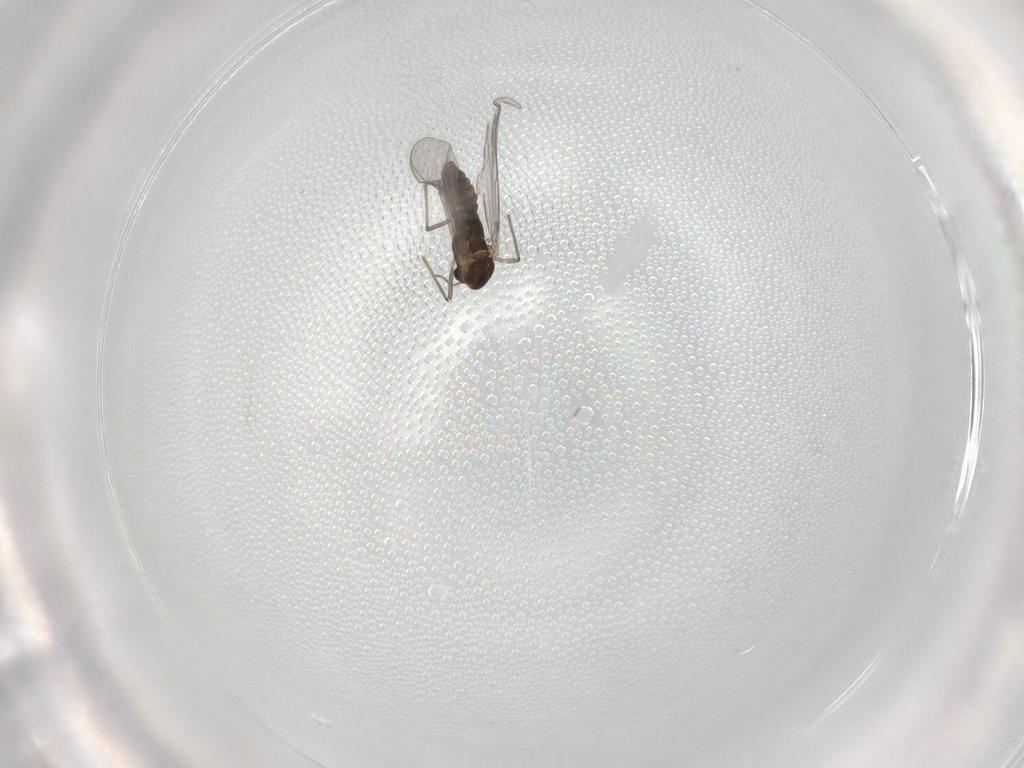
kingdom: Animalia
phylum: Arthropoda
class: Insecta
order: Diptera
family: Chironomidae
